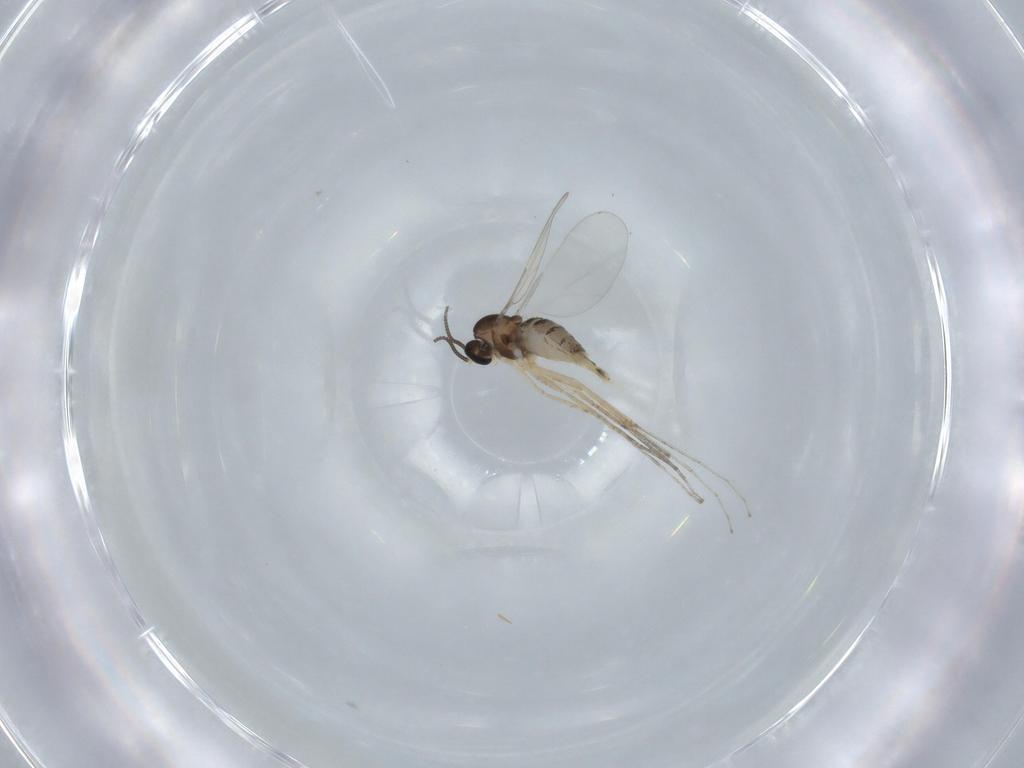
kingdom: Animalia
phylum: Arthropoda
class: Insecta
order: Diptera
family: Cecidomyiidae
